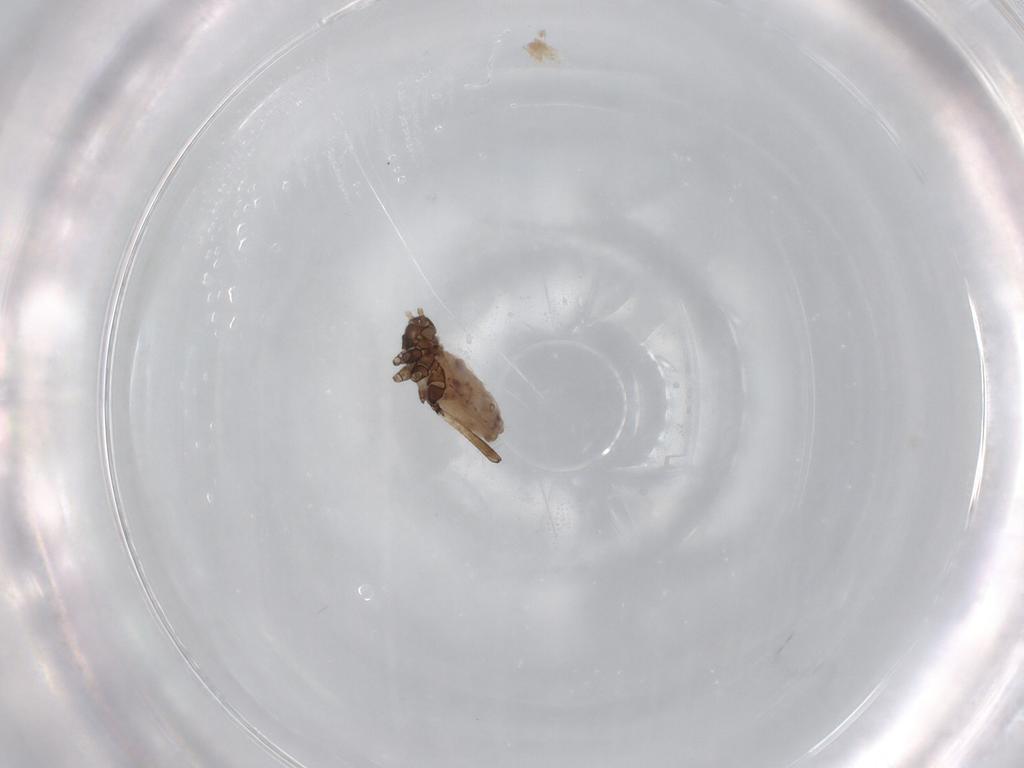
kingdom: Animalia
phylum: Arthropoda
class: Insecta
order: Hemiptera
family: Aphididae
